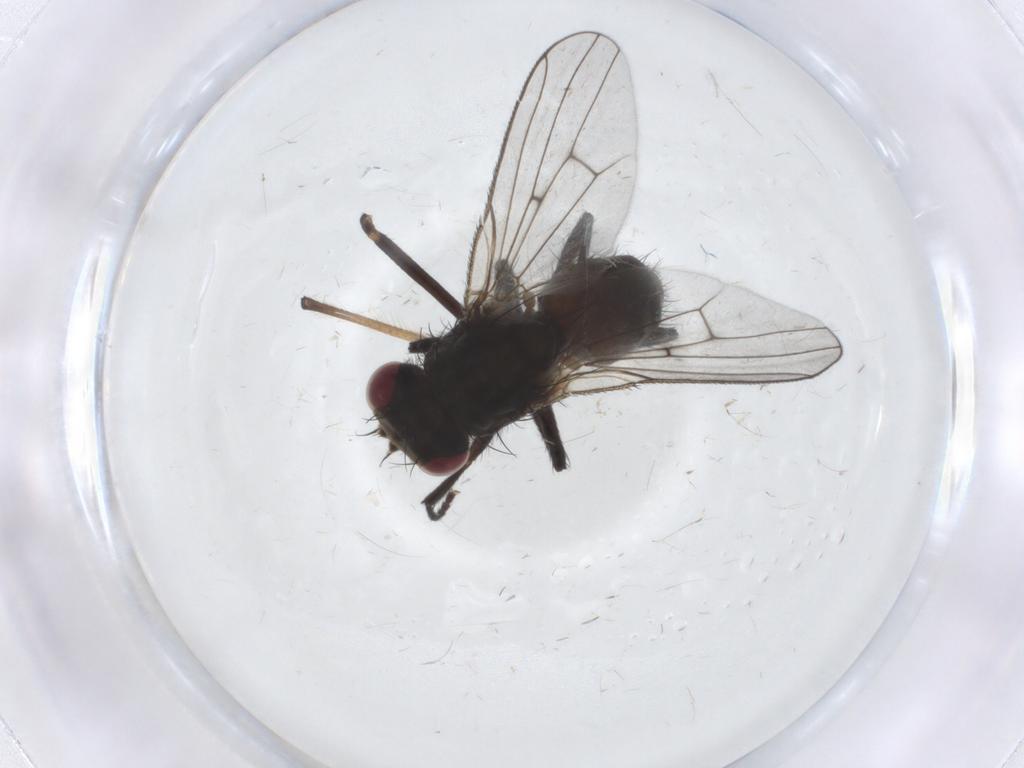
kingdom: Animalia
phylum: Arthropoda
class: Insecta
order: Diptera
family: Muscidae
